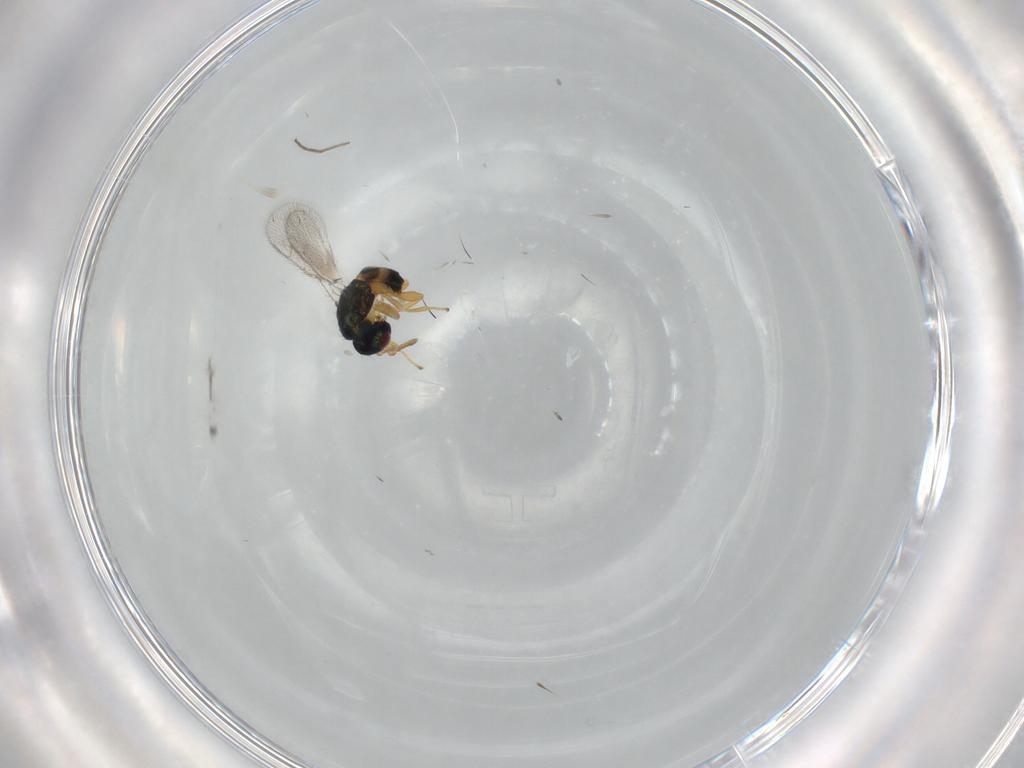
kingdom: Animalia
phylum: Arthropoda
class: Insecta
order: Hymenoptera
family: Torymidae
